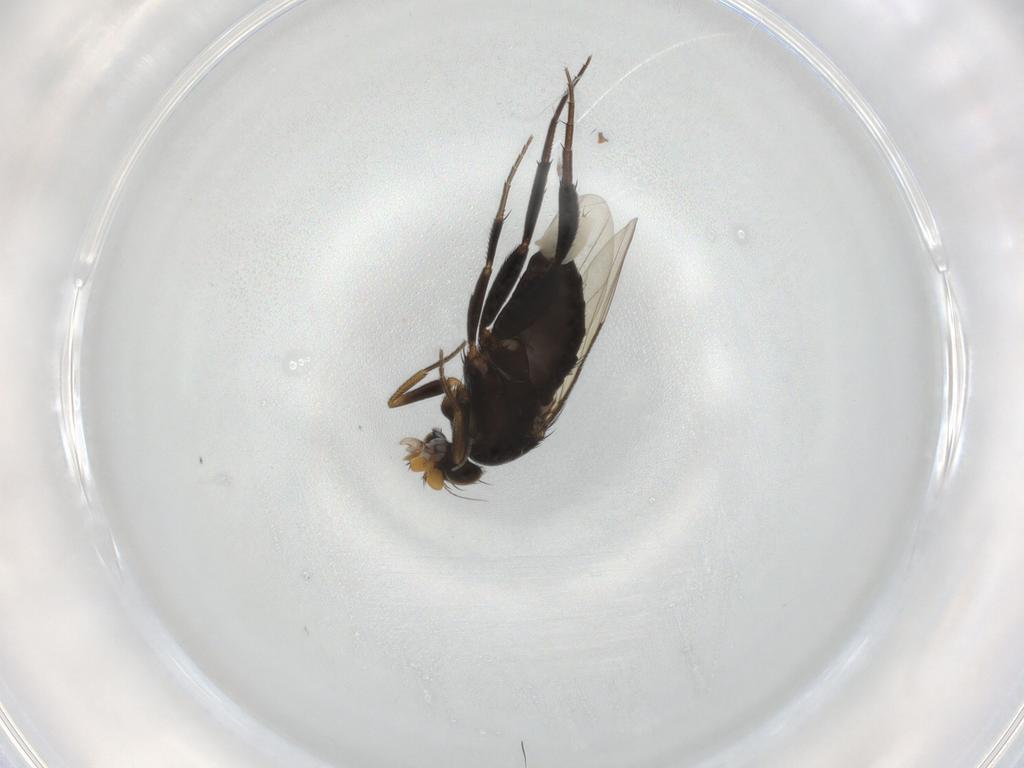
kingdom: Animalia
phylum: Arthropoda
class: Insecta
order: Diptera
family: Phoridae
